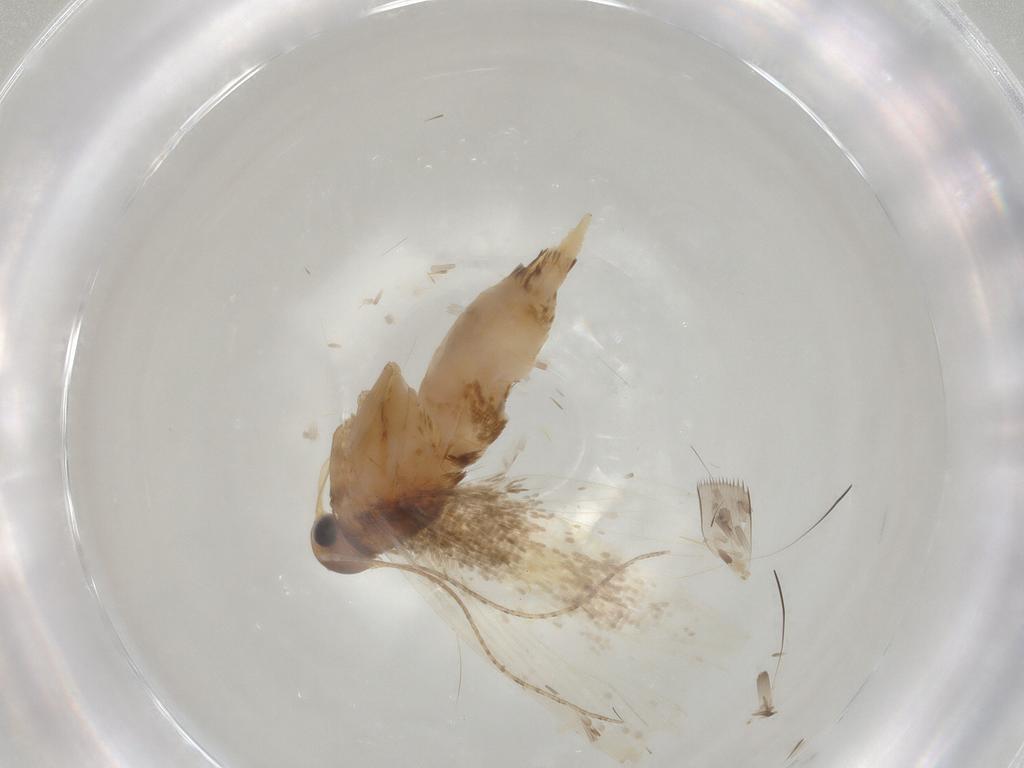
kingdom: Animalia
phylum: Arthropoda
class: Insecta
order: Lepidoptera
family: Erebidae
